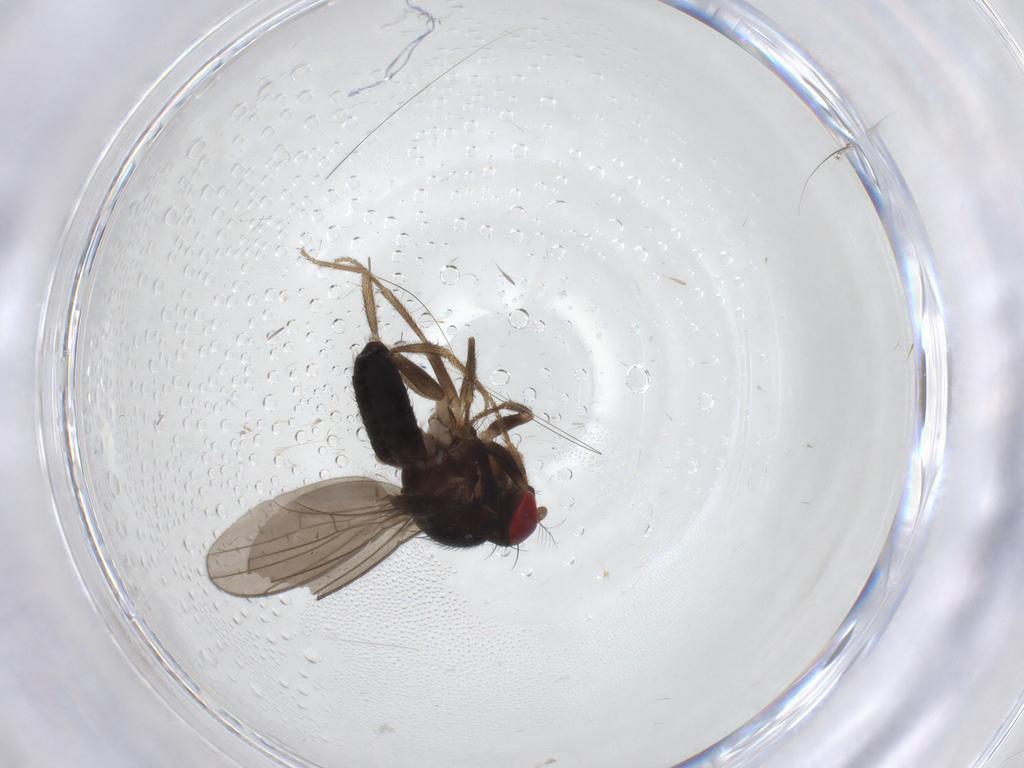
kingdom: Animalia
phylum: Arthropoda
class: Insecta
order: Diptera
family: Drosophilidae
